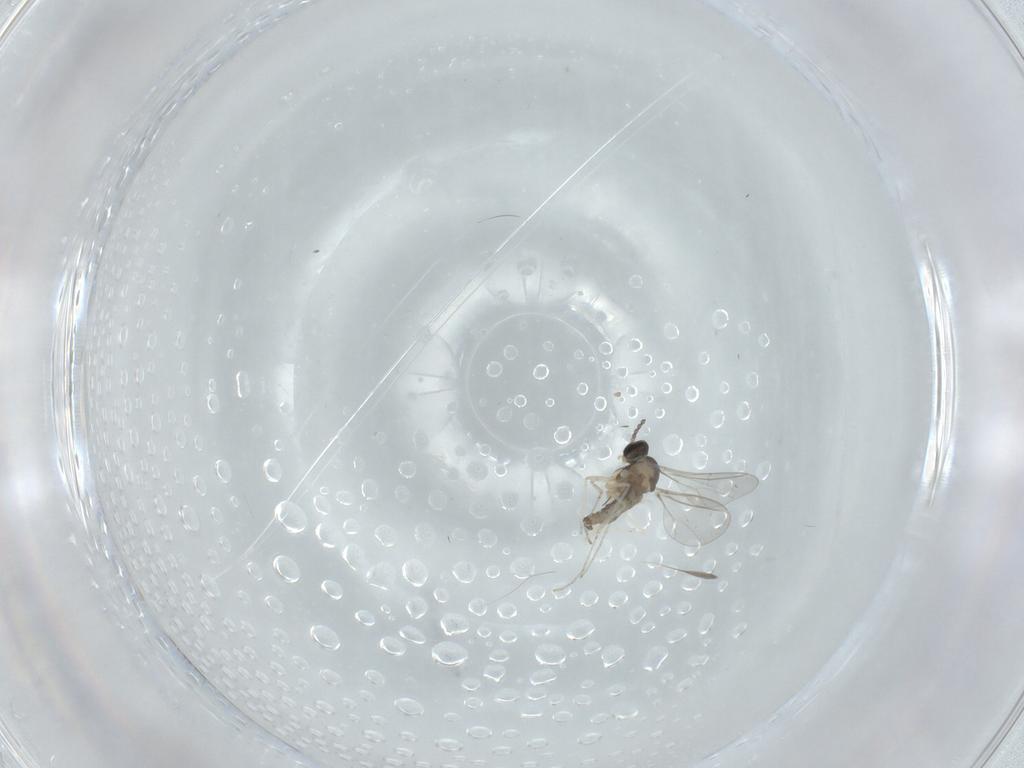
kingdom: Animalia
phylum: Arthropoda
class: Insecta
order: Diptera
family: Cecidomyiidae
